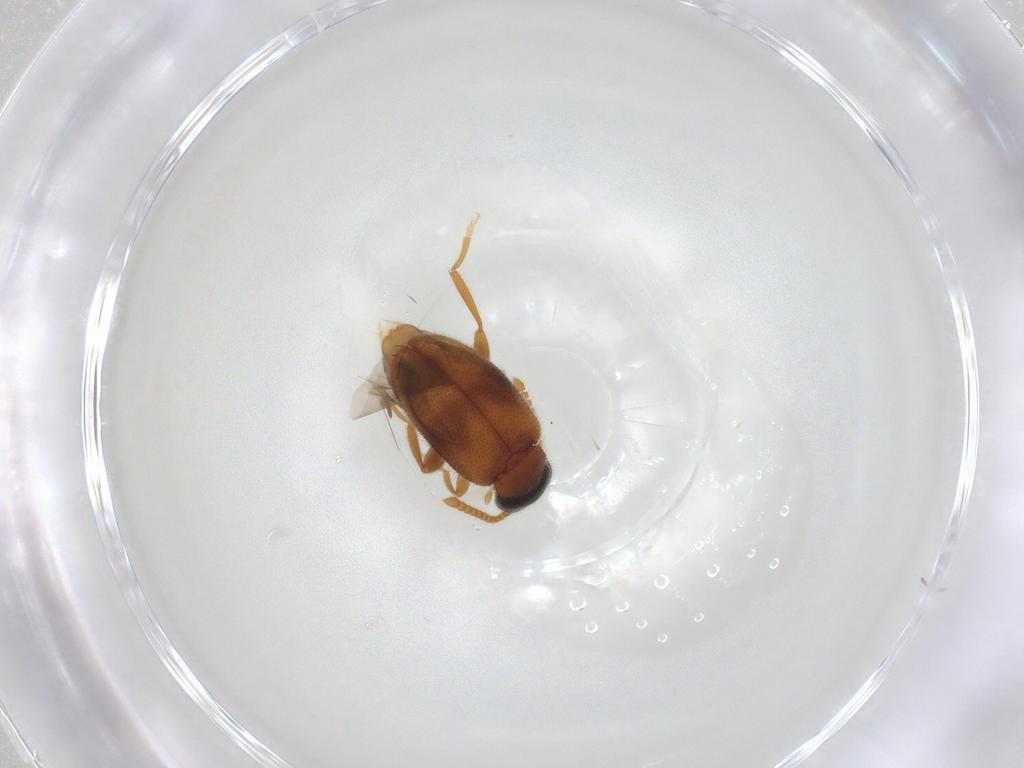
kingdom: Animalia
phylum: Arthropoda
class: Insecta
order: Coleoptera
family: Aderidae
